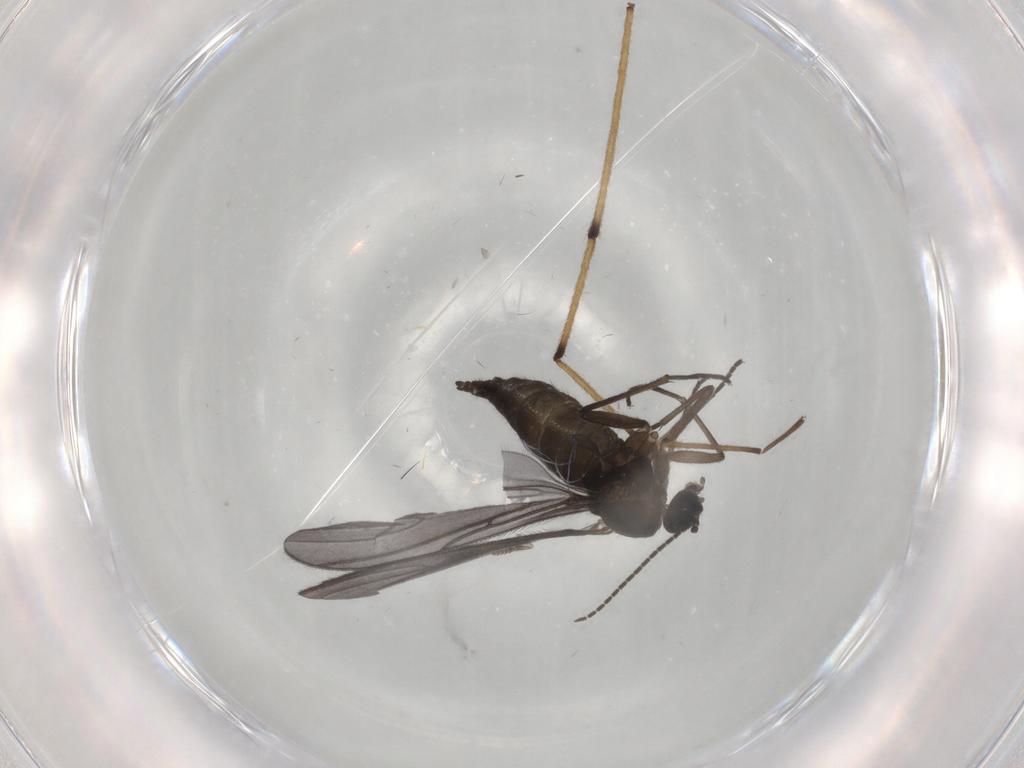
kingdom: Animalia
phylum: Arthropoda
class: Insecta
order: Diptera
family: Sciaridae
